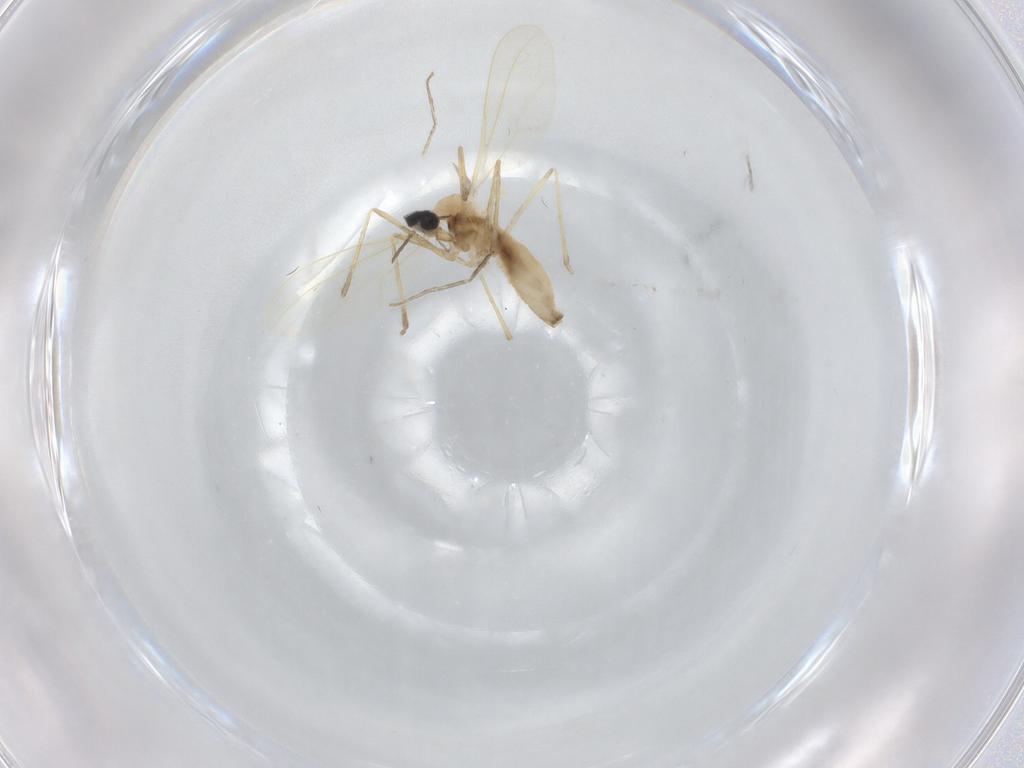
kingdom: Animalia
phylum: Arthropoda
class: Insecta
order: Diptera
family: Cecidomyiidae
